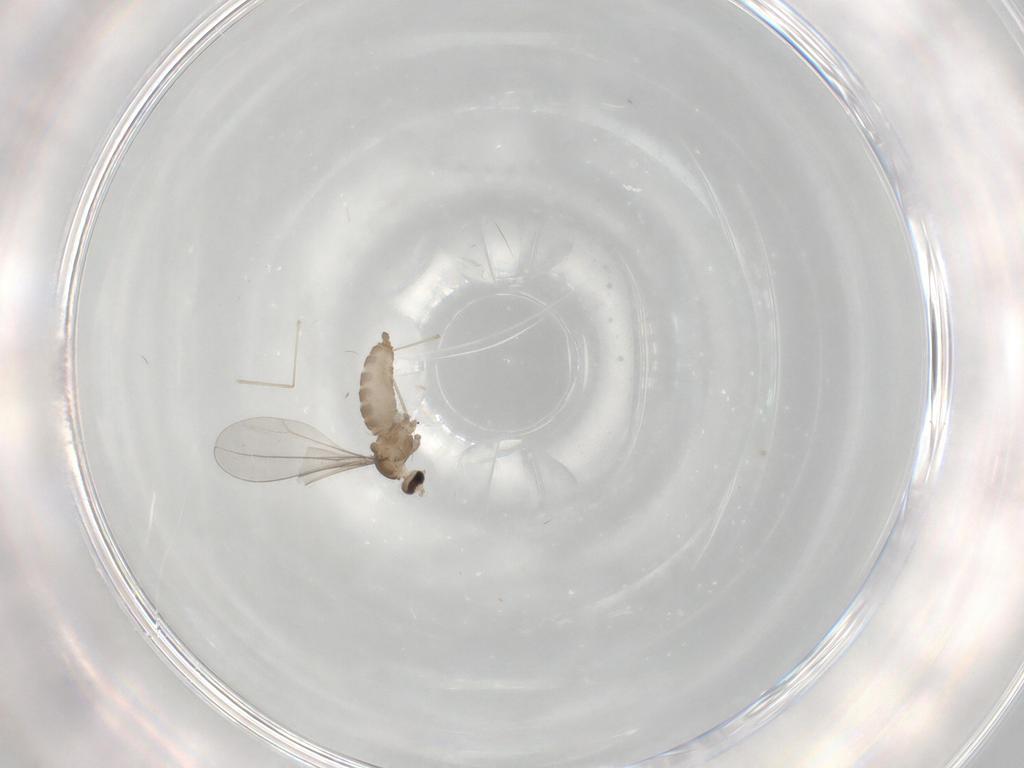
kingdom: Animalia
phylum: Arthropoda
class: Insecta
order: Diptera
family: Cecidomyiidae
